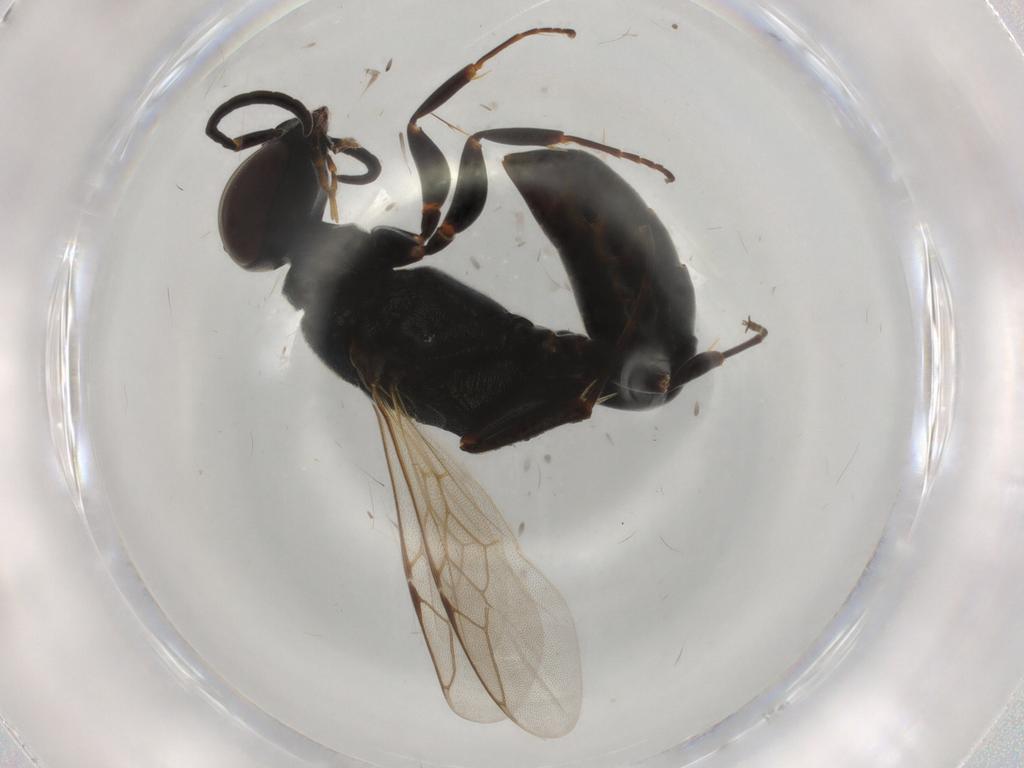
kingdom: Animalia
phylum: Arthropoda
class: Insecta
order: Hymenoptera
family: Crabronidae
